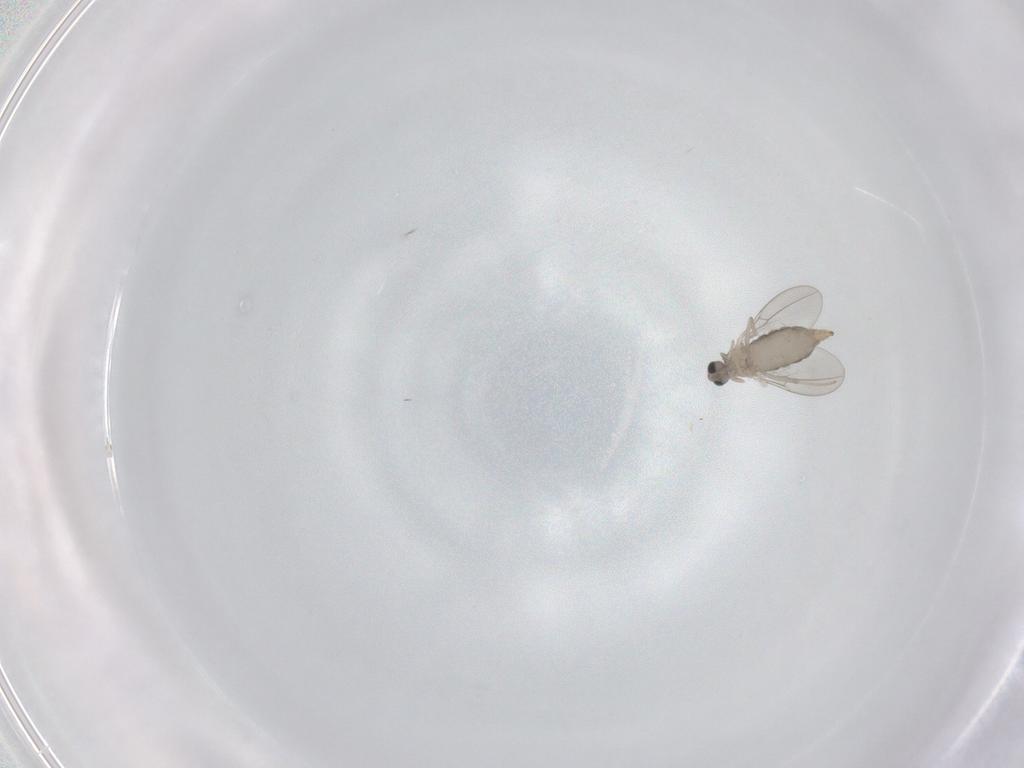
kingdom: Animalia
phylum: Arthropoda
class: Insecta
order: Diptera
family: Cecidomyiidae
